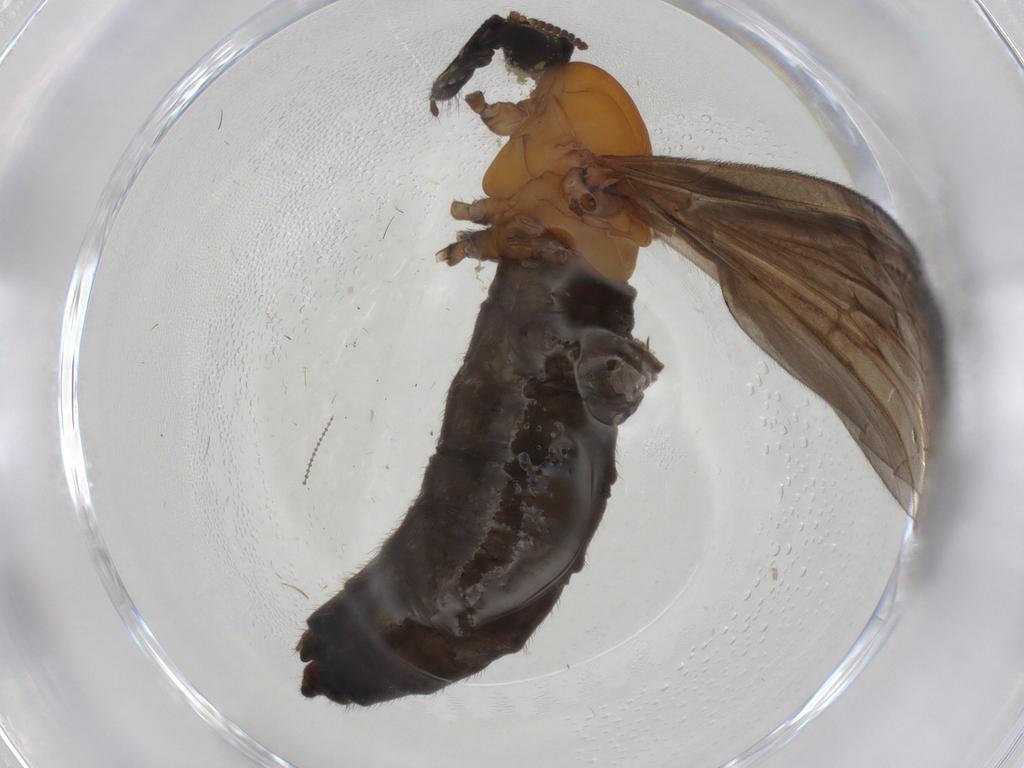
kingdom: Animalia
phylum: Arthropoda
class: Insecta
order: Diptera
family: Bibionidae
